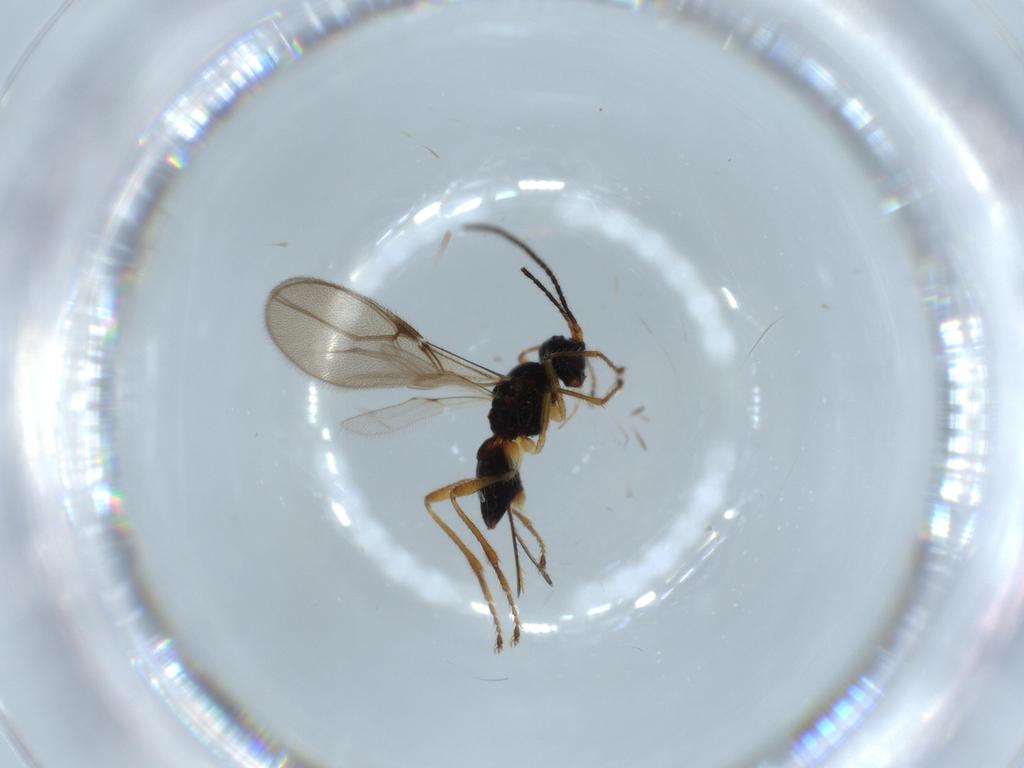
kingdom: Animalia
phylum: Arthropoda
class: Insecta
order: Hymenoptera
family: Braconidae
